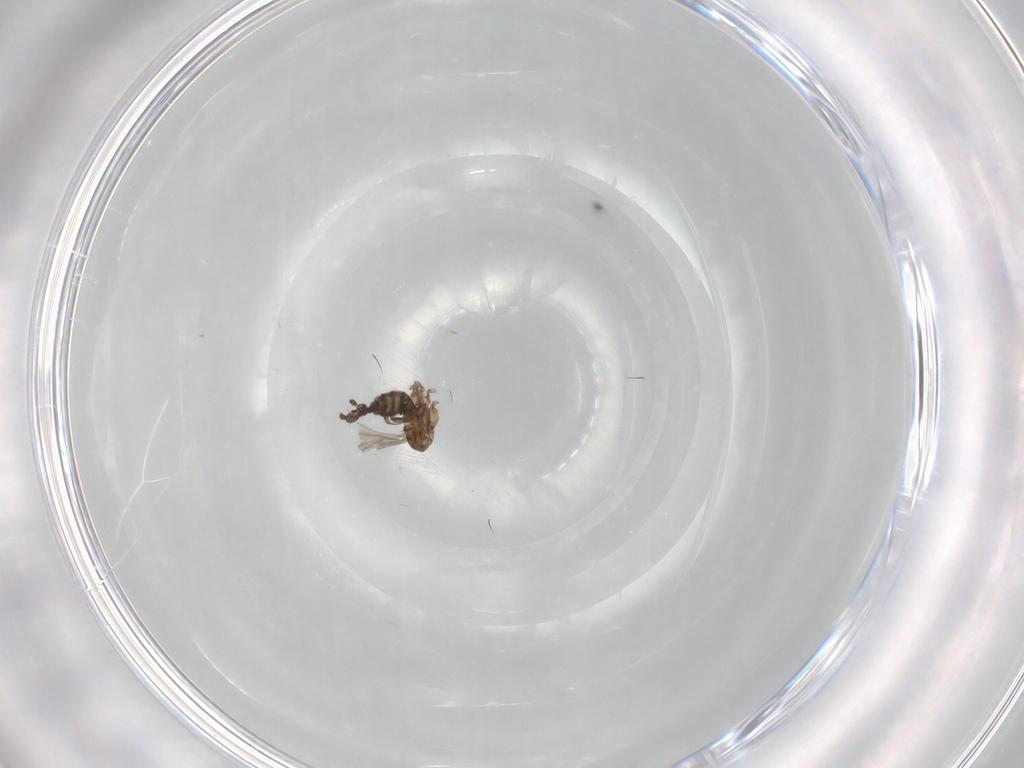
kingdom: Animalia
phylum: Arthropoda
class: Insecta
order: Diptera
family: Sciaridae
